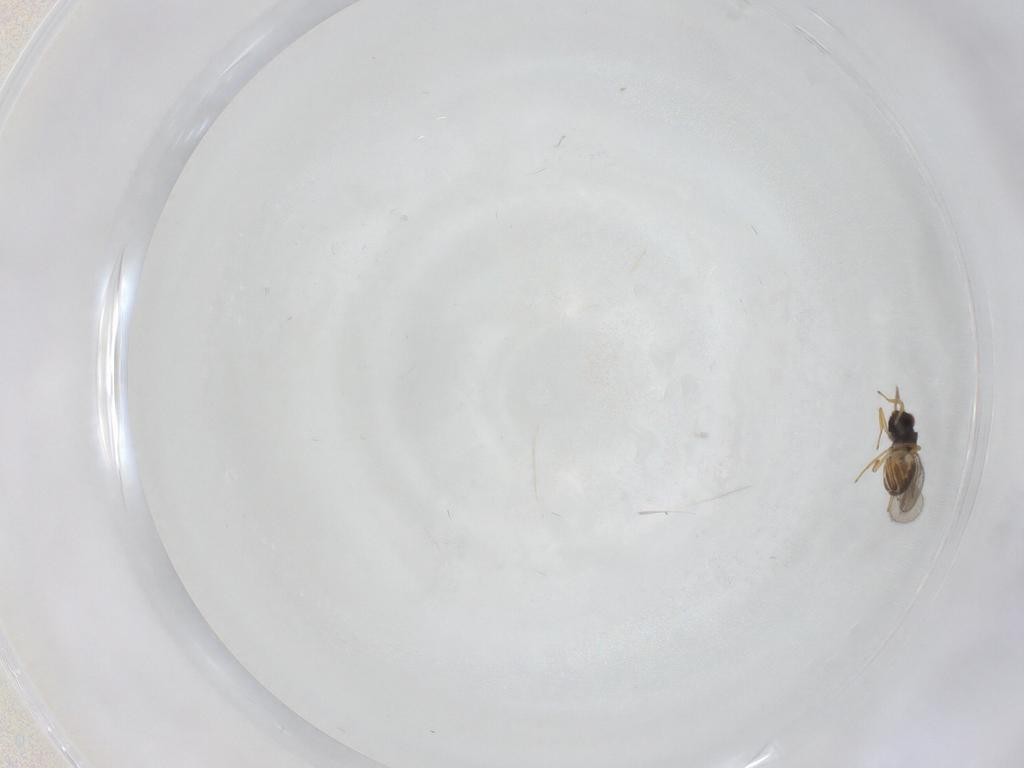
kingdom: Animalia
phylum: Arthropoda
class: Insecta
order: Hymenoptera
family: Eulophidae
